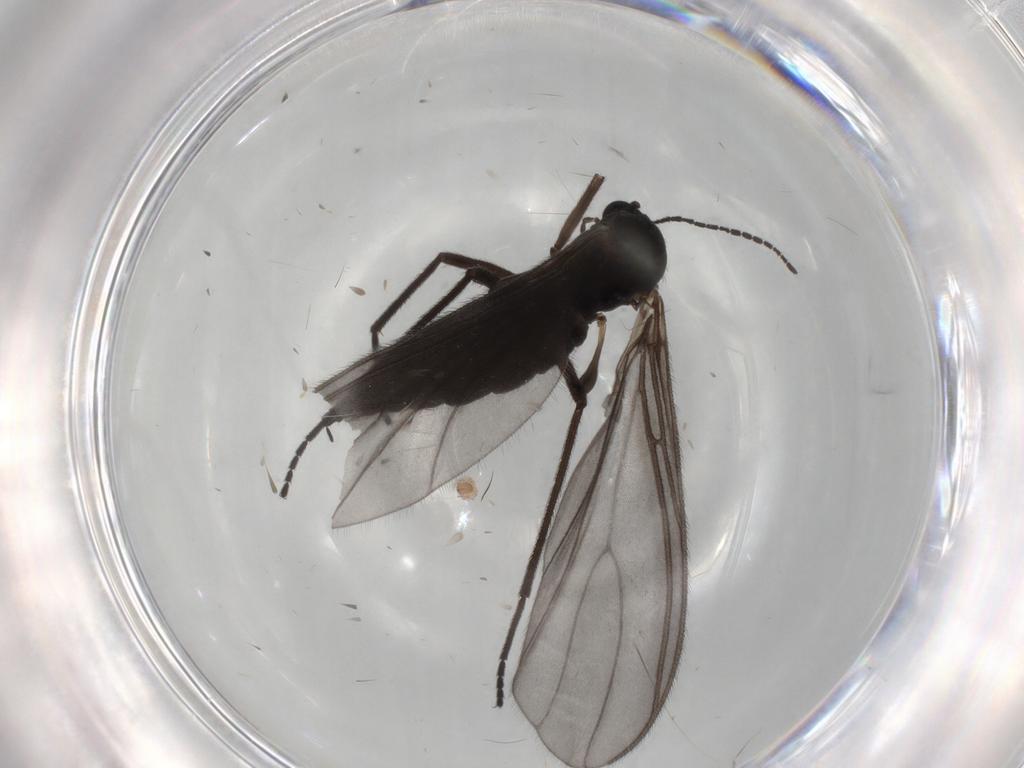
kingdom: Animalia
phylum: Arthropoda
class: Insecta
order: Diptera
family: Sciaridae
